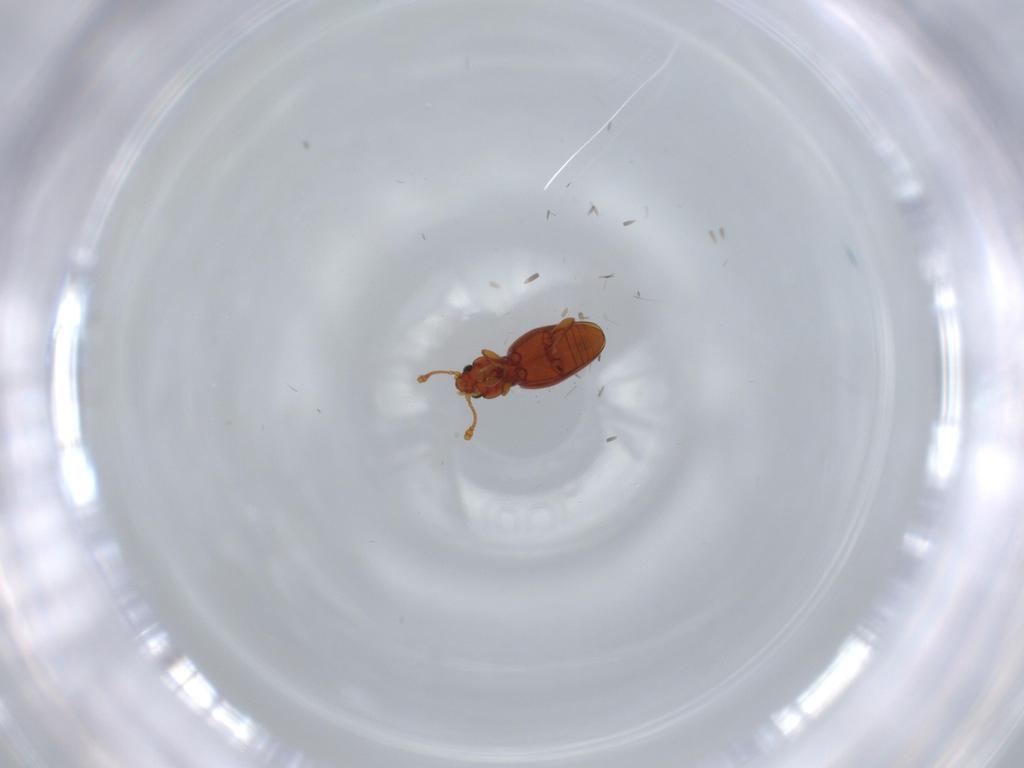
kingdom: Animalia
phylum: Arthropoda
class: Insecta
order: Coleoptera
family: Endomychidae
